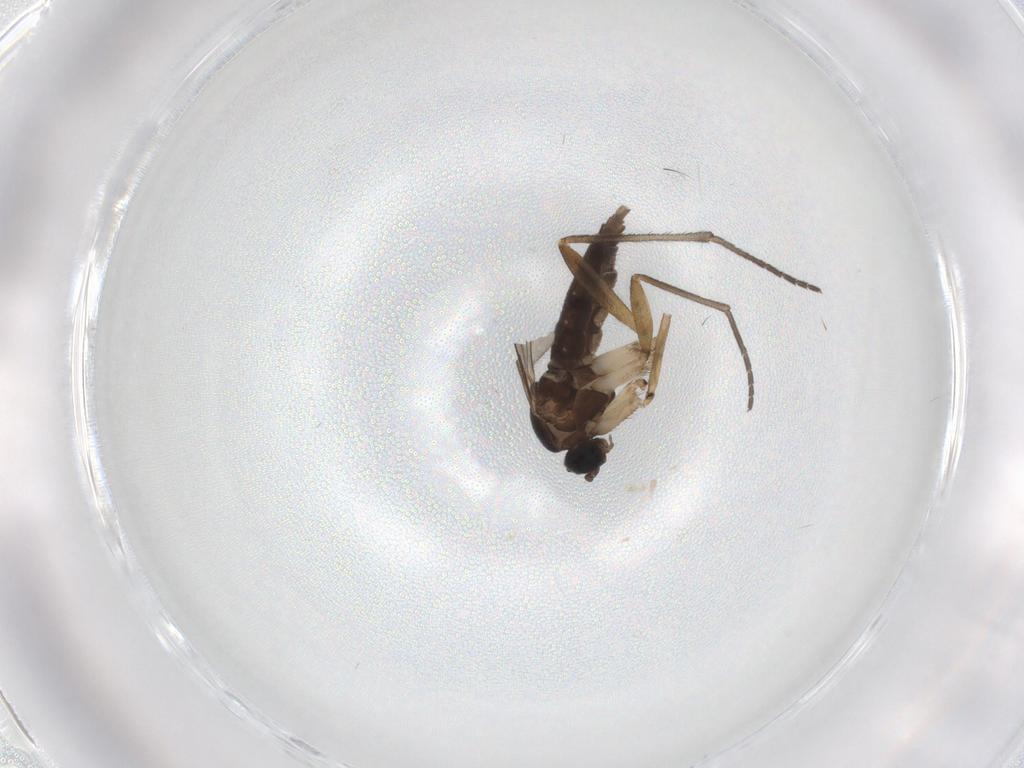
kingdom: Animalia
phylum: Arthropoda
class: Insecta
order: Diptera
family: Sciaridae
